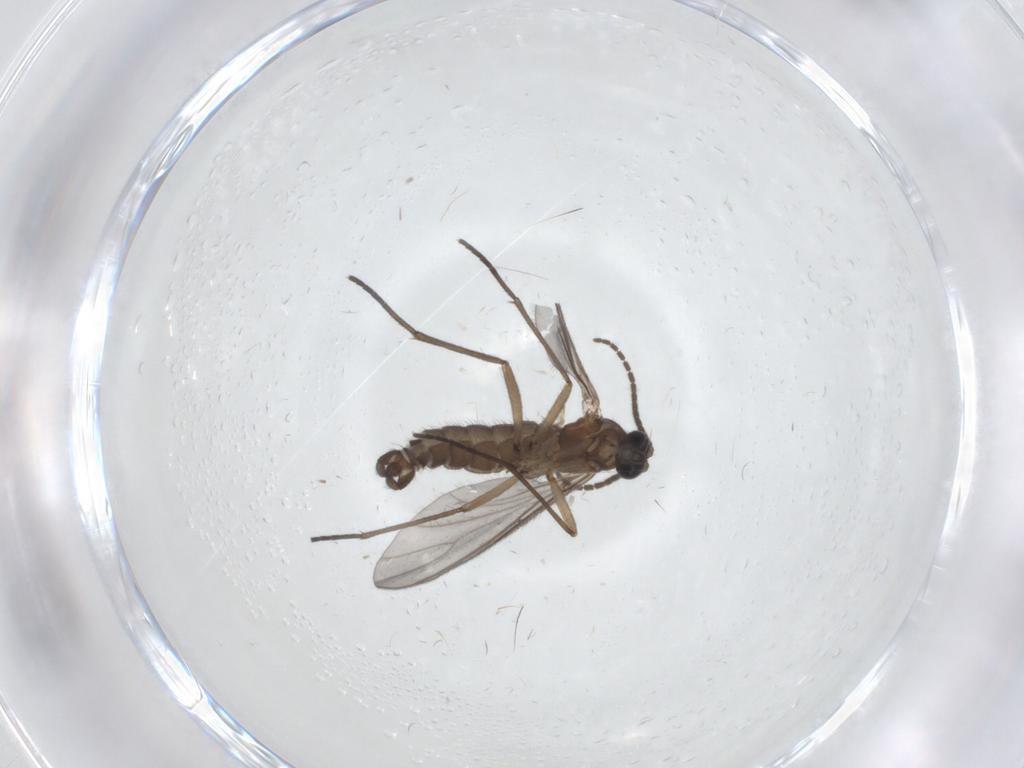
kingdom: Animalia
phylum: Arthropoda
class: Insecta
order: Diptera
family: Sciaridae
